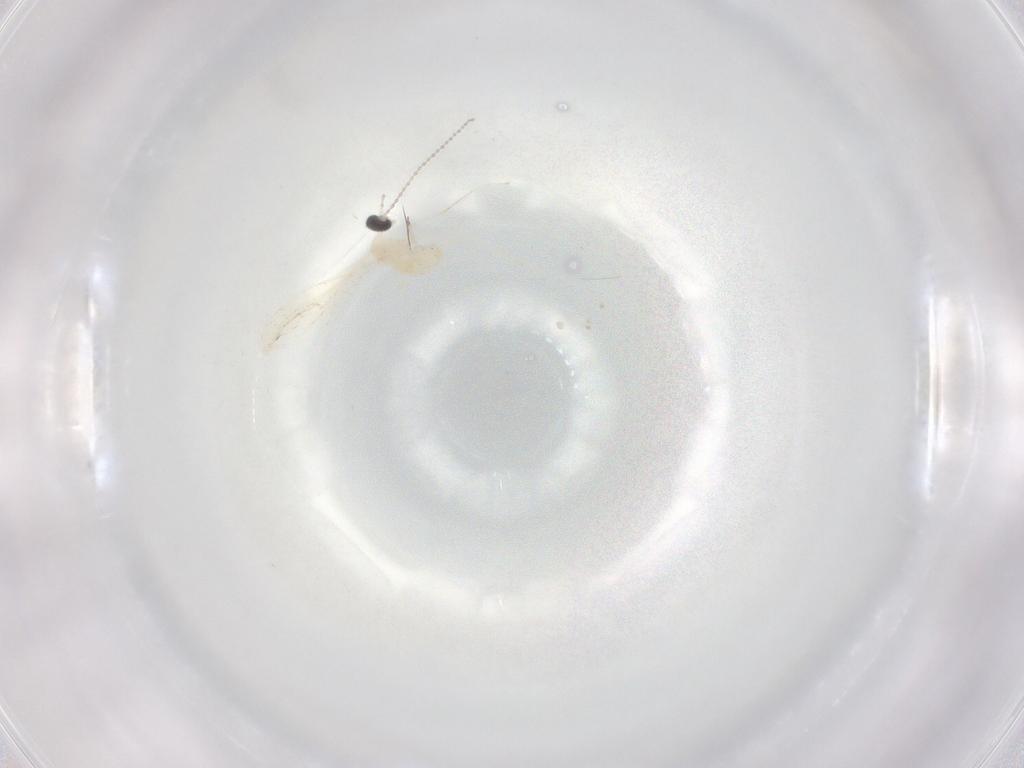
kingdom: Animalia
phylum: Arthropoda
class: Insecta
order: Diptera
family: Cecidomyiidae
